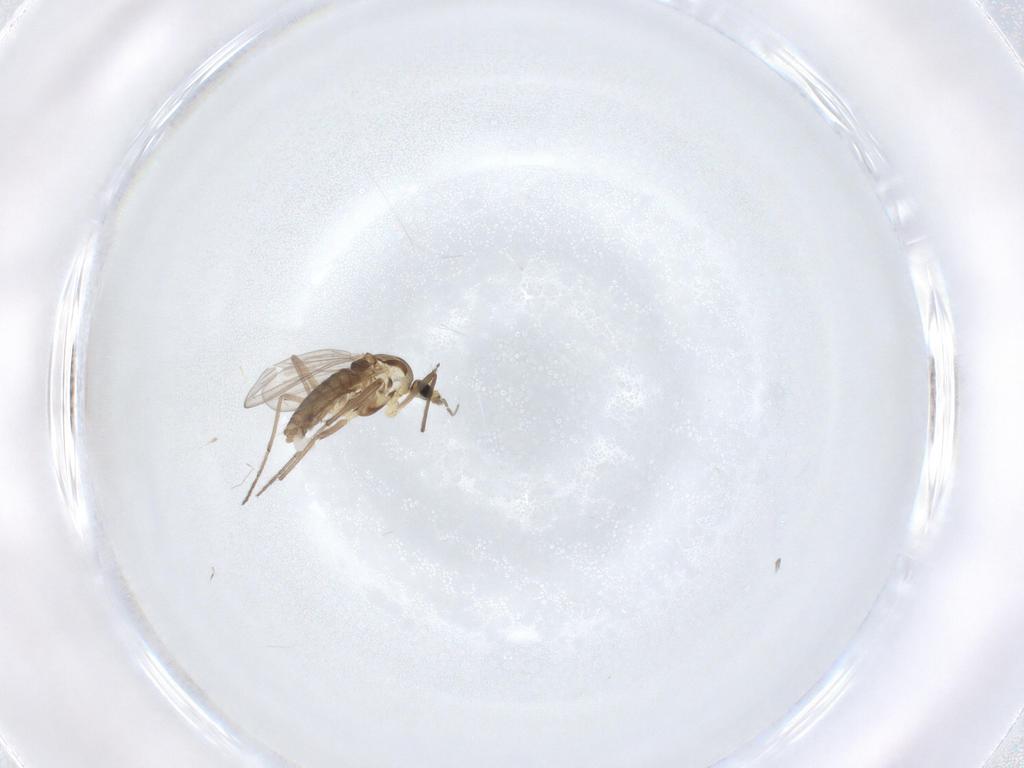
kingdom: Animalia
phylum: Arthropoda
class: Insecta
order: Diptera
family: Chironomidae
